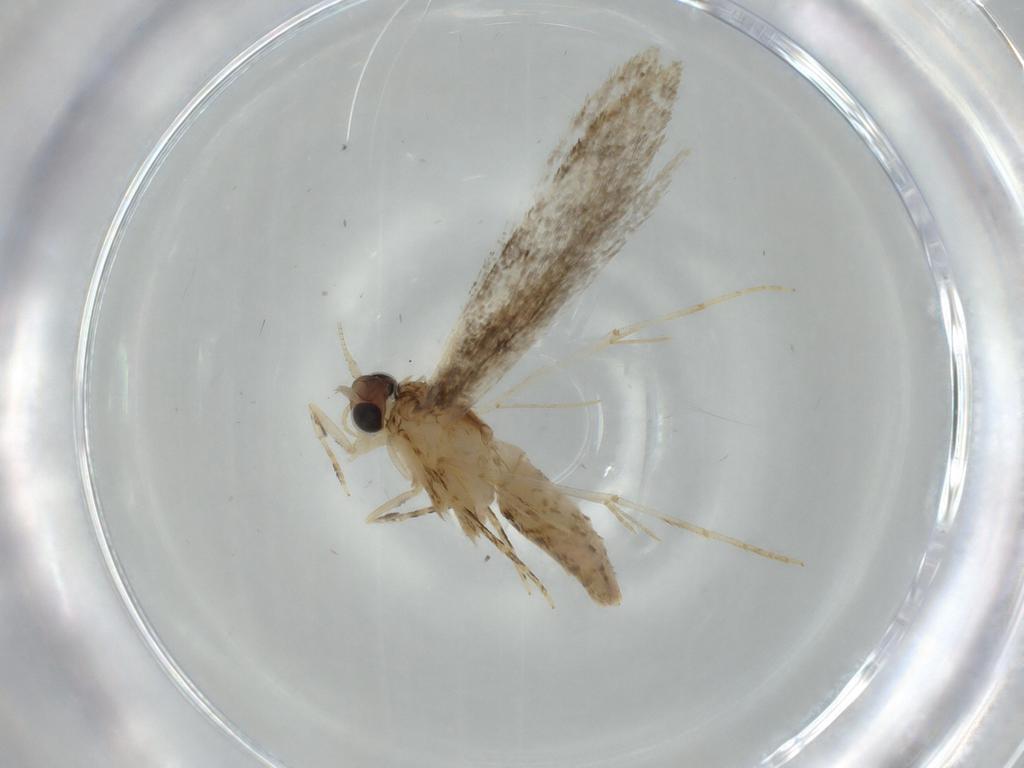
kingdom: Animalia
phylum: Arthropoda
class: Insecta
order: Lepidoptera
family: Tineidae
